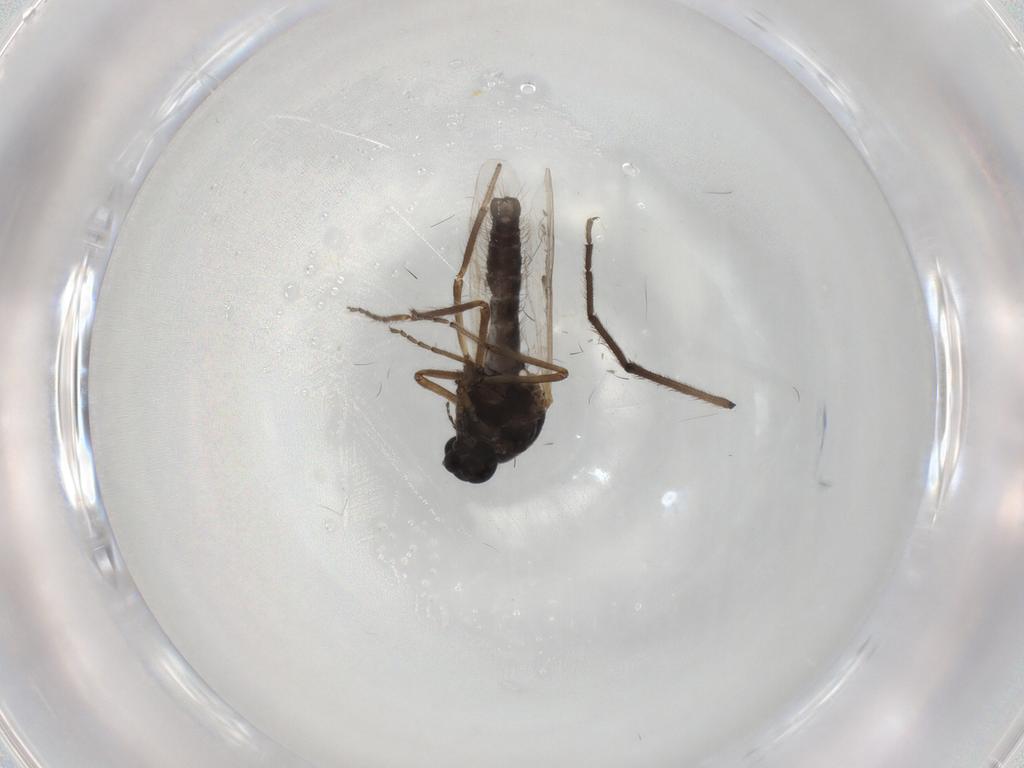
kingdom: Animalia
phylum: Arthropoda
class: Insecta
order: Diptera
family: Ceratopogonidae
